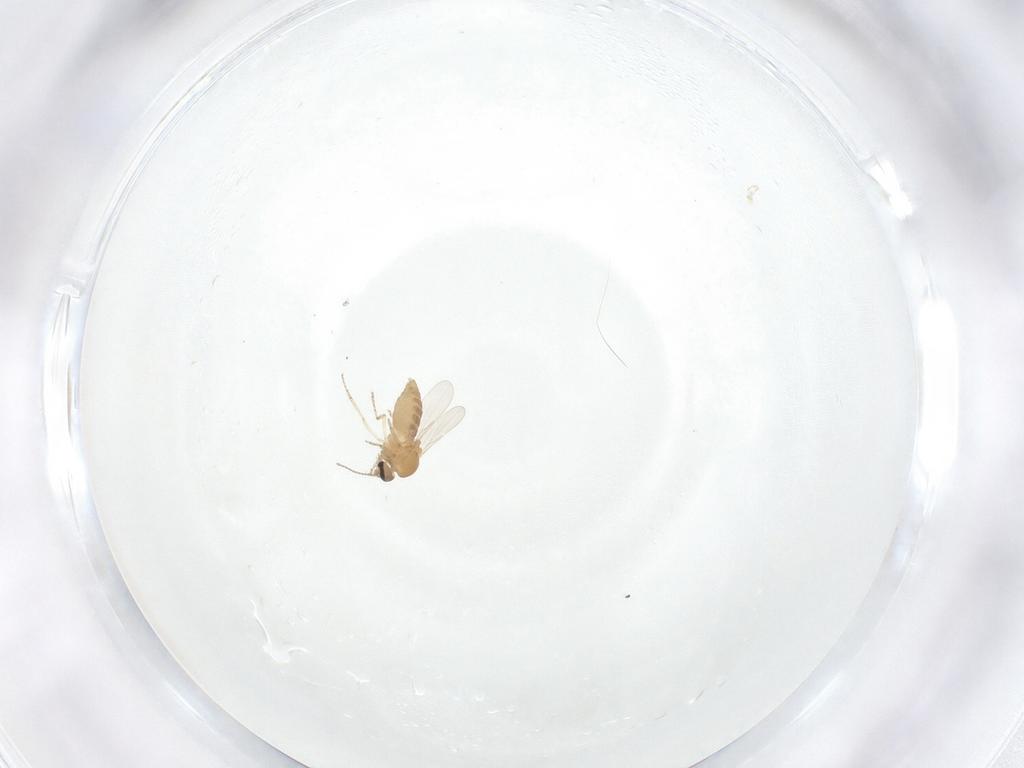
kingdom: Animalia
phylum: Arthropoda
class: Insecta
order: Diptera
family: Ceratopogonidae
